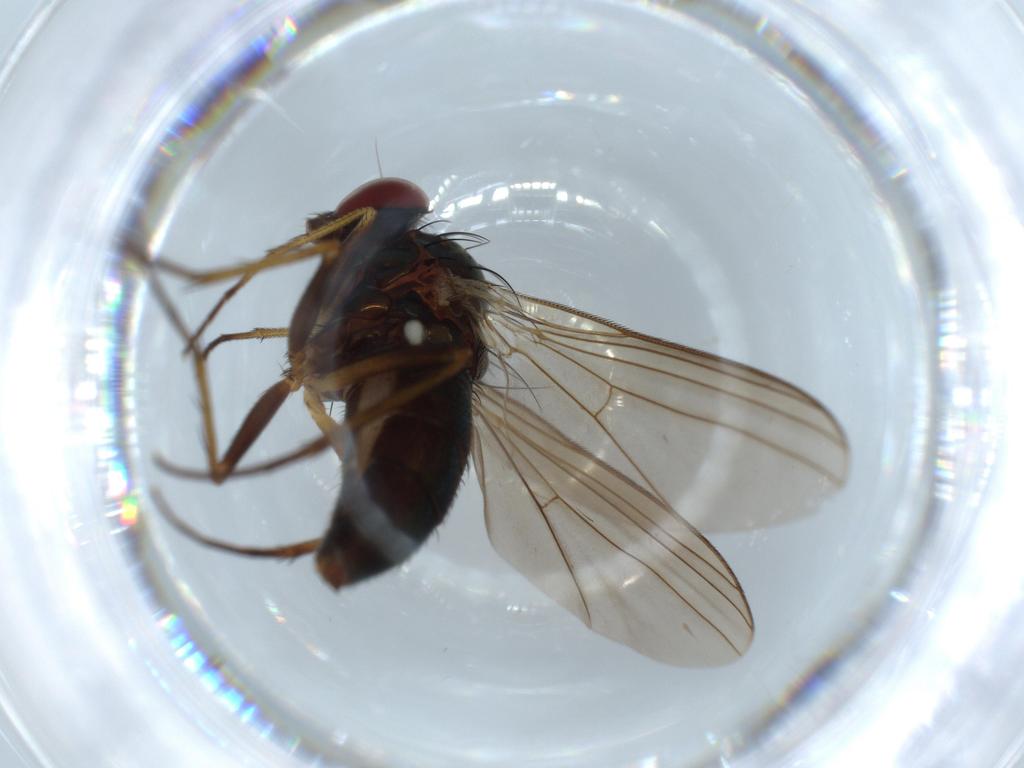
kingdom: Animalia
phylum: Arthropoda
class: Insecta
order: Diptera
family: Dolichopodidae
